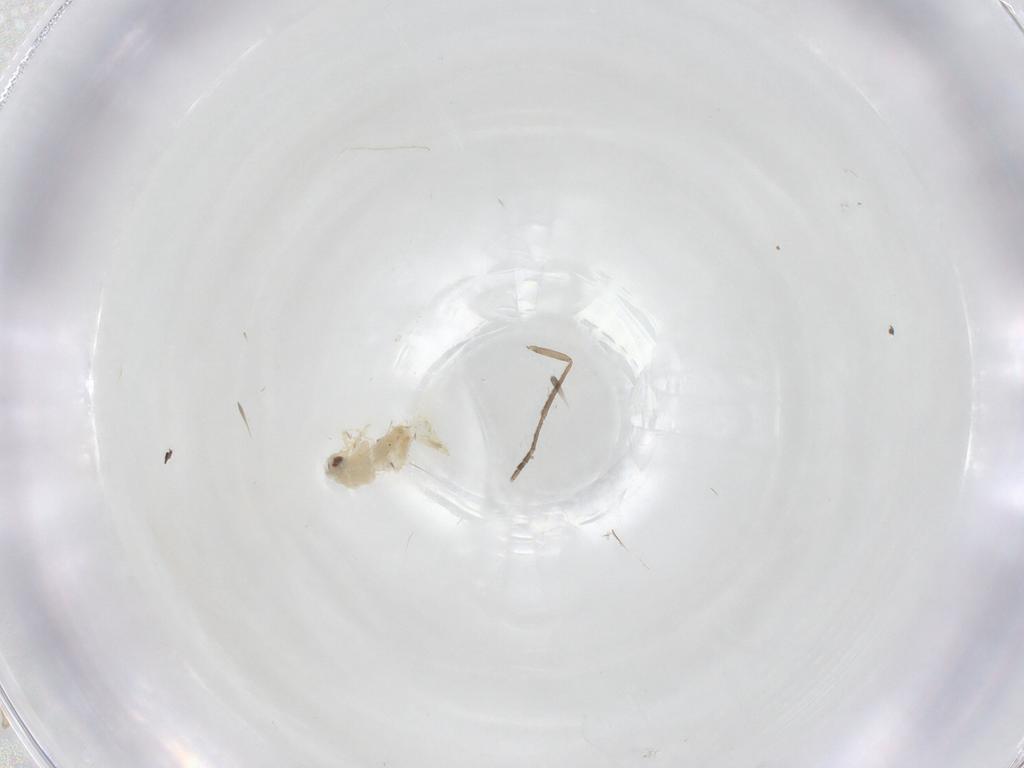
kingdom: Animalia
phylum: Arthropoda
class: Insecta
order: Hemiptera
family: Aleyrodidae
